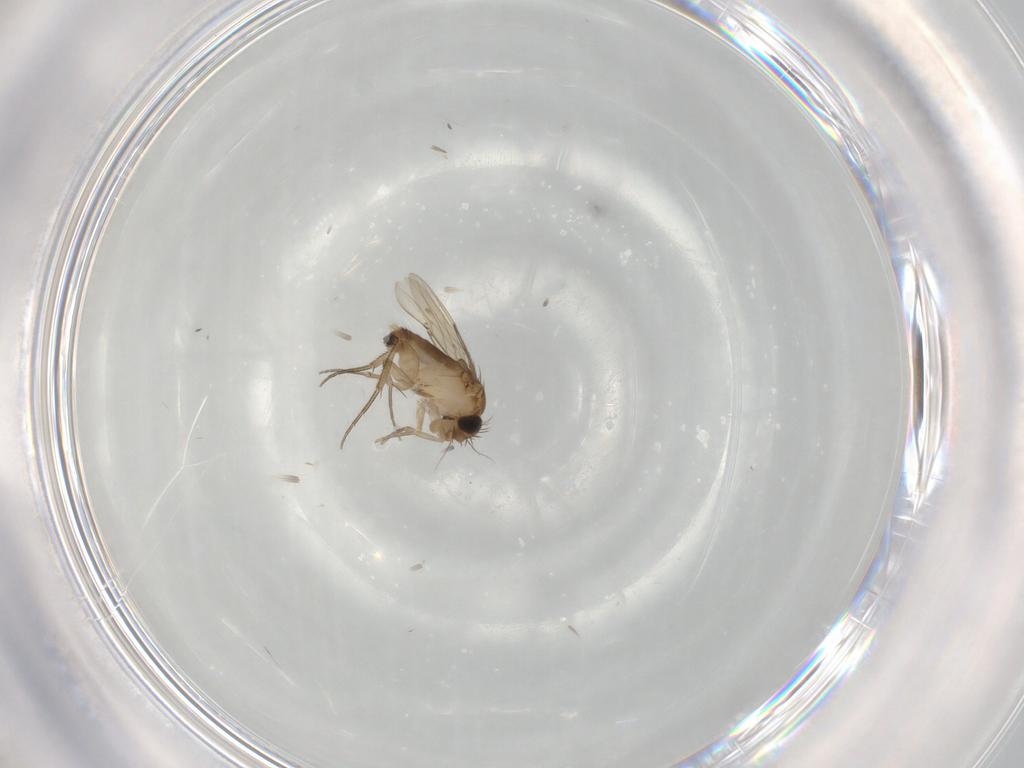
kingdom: Animalia
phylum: Arthropoda
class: Insecta
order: Diptera
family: Phoridae
